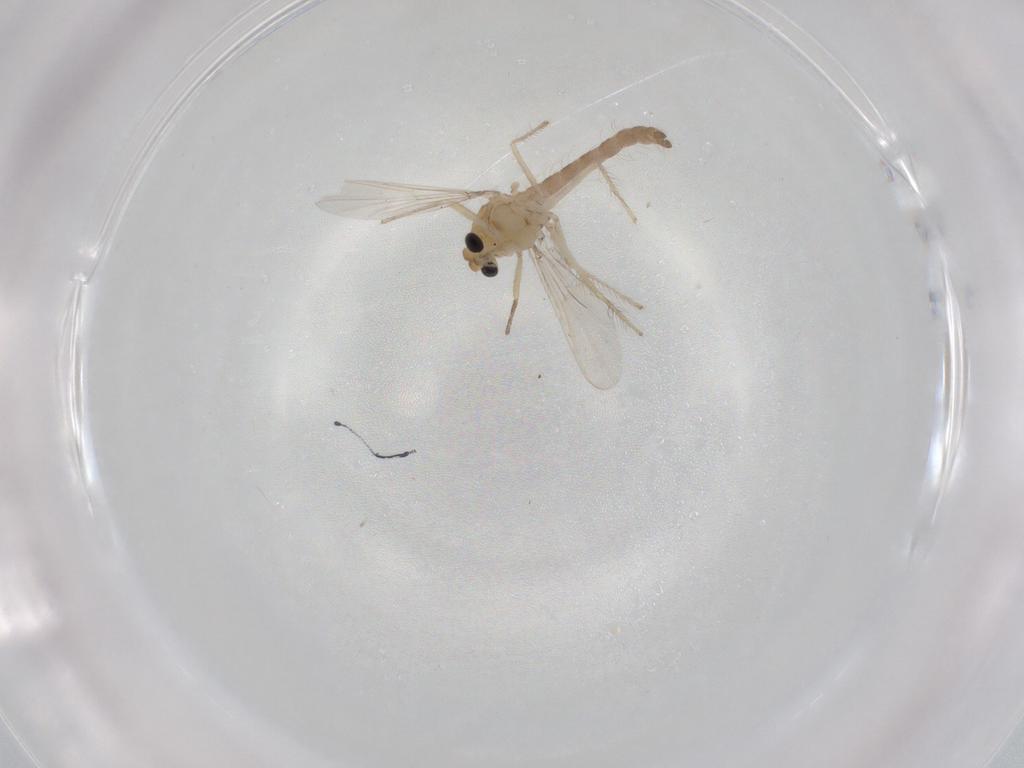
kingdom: Animalia
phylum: Arthropoda
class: Insecta
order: Diptera
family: Chironomidae
